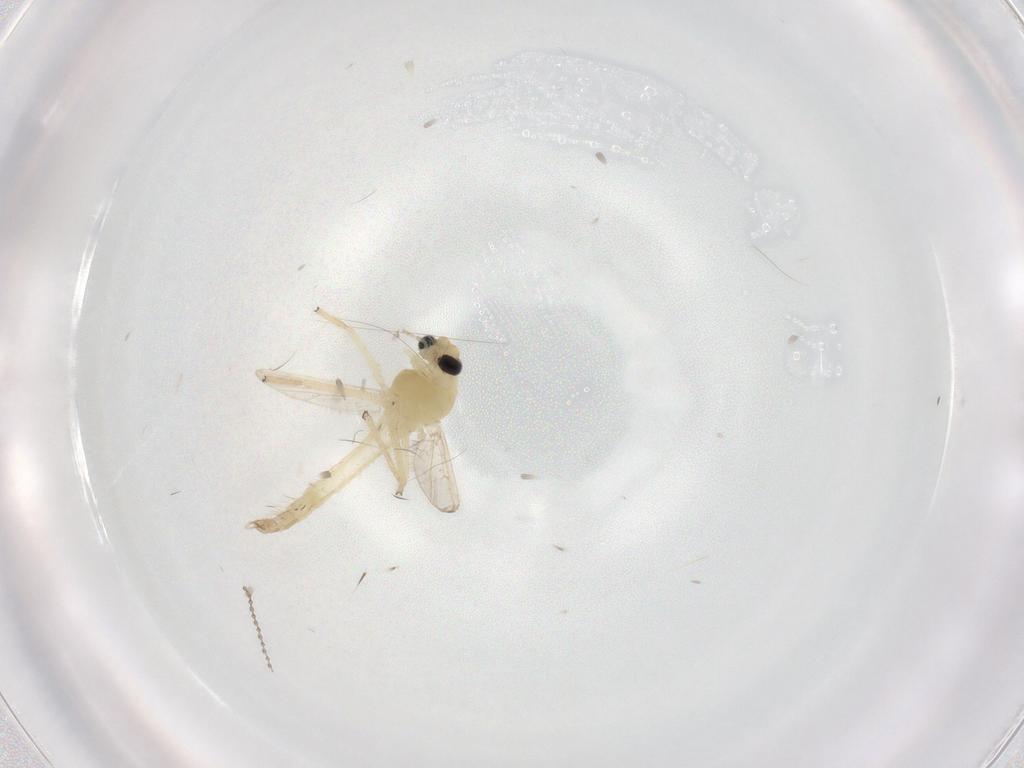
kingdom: Animalia
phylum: Arthropoda
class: Insecta
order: Diptera
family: Chironomidae
